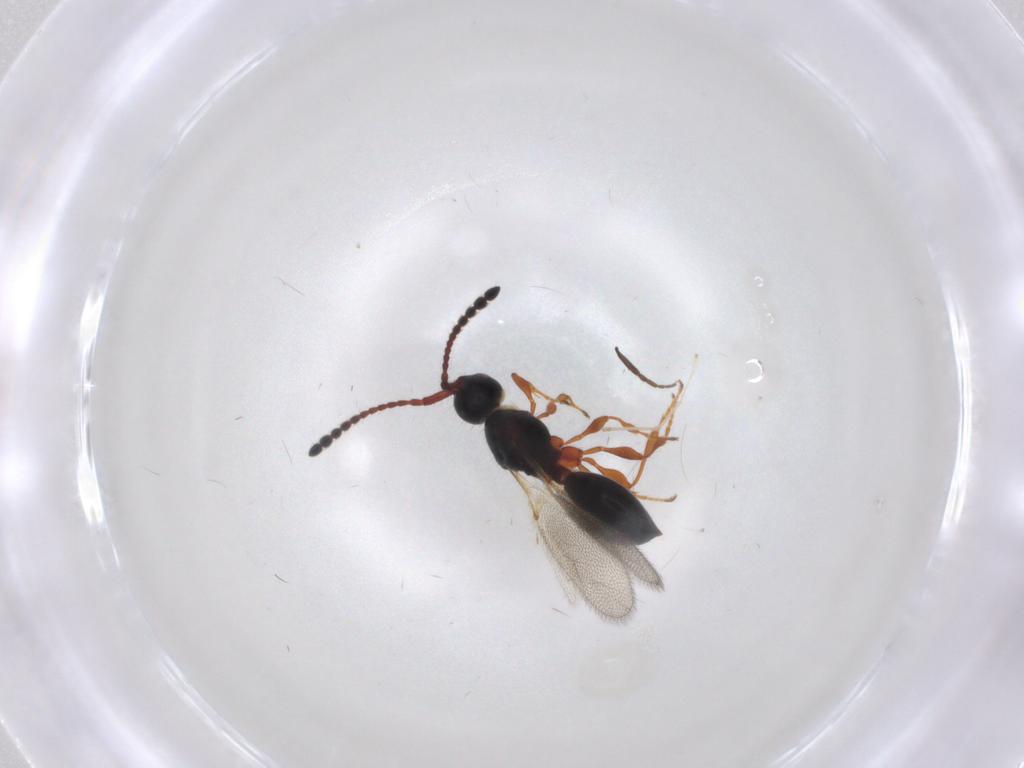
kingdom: Animalia
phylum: Arthropoda
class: Insecta
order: Hymenoptera
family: Diapriidae
